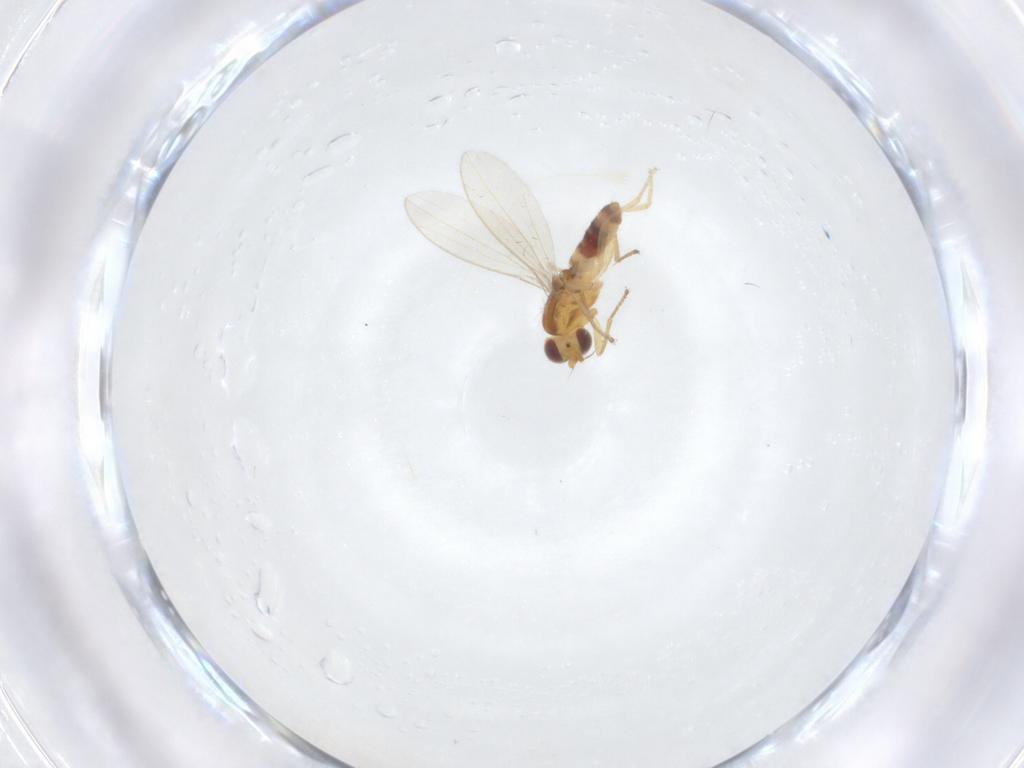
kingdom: Animalia
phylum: Arthropoda
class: Insecta
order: Diptera
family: Periscelididae
